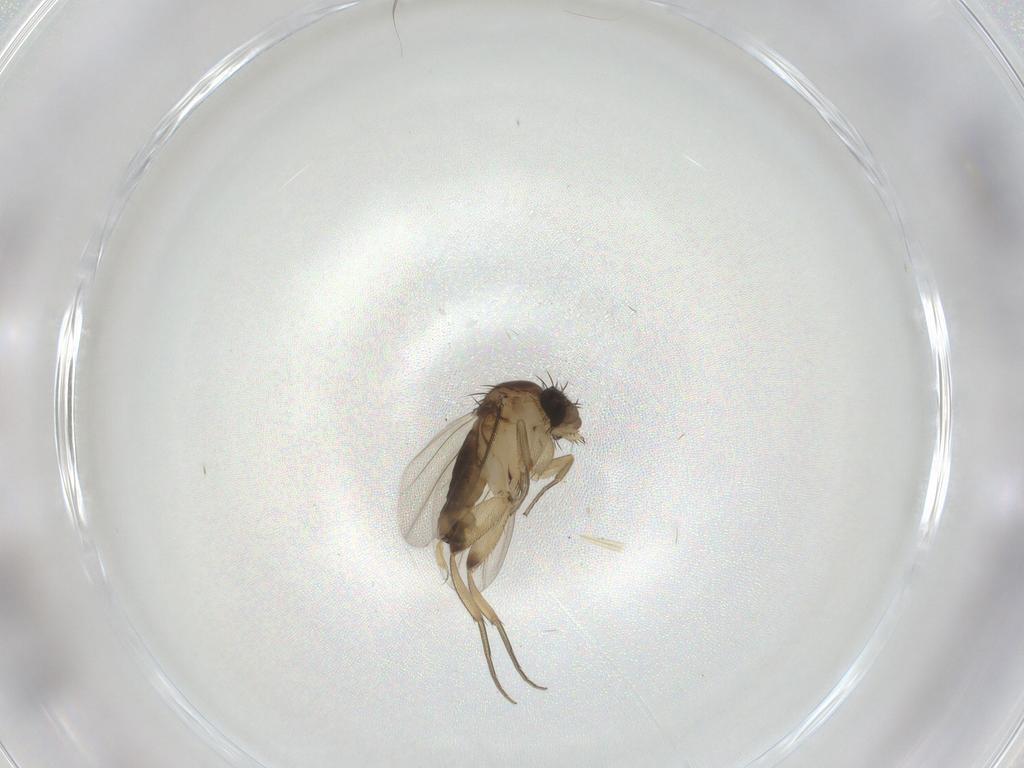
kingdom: Animalia
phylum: Arthropoda
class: Insecta
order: Diptera
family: Phoridae
